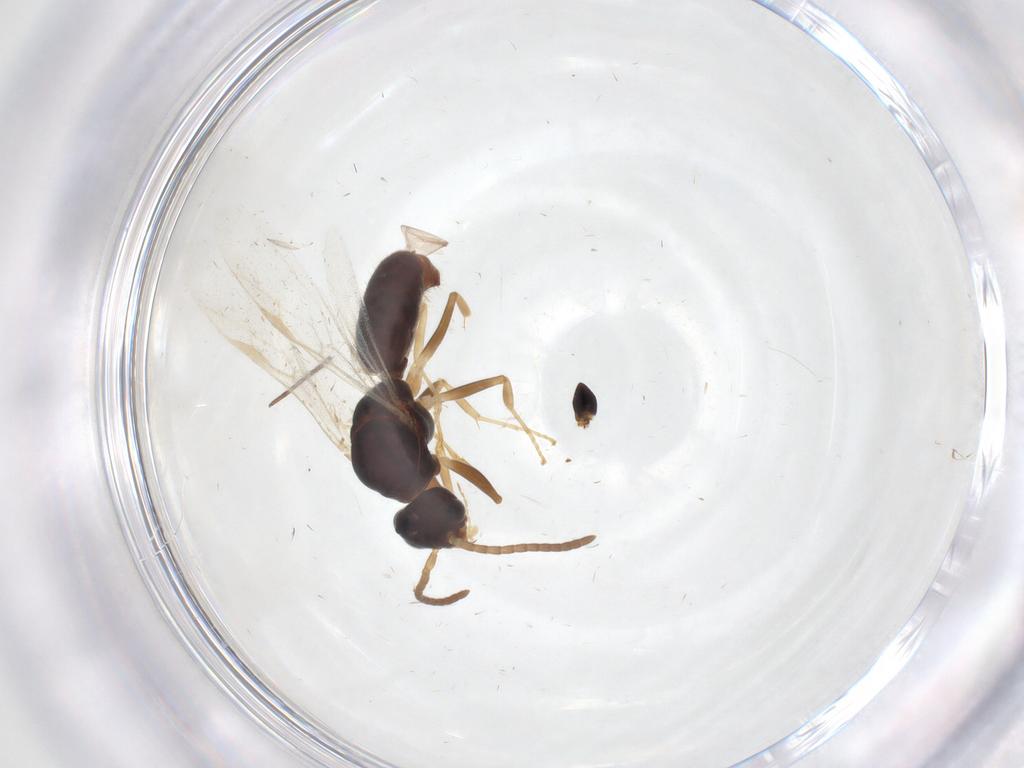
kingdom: Animalia
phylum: Arthropoda
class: Insecta
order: Hymenoptera
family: Formicidae
